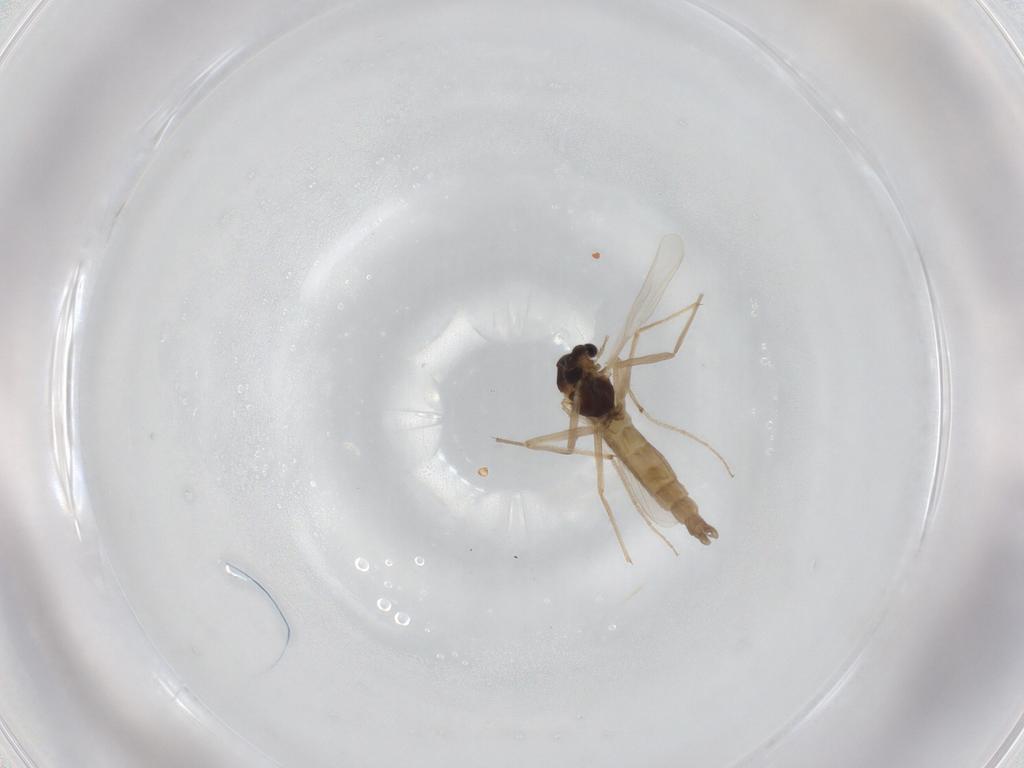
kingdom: Animalia
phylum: Arthropoda
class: Insecta
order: Diptera
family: Chironomidae
